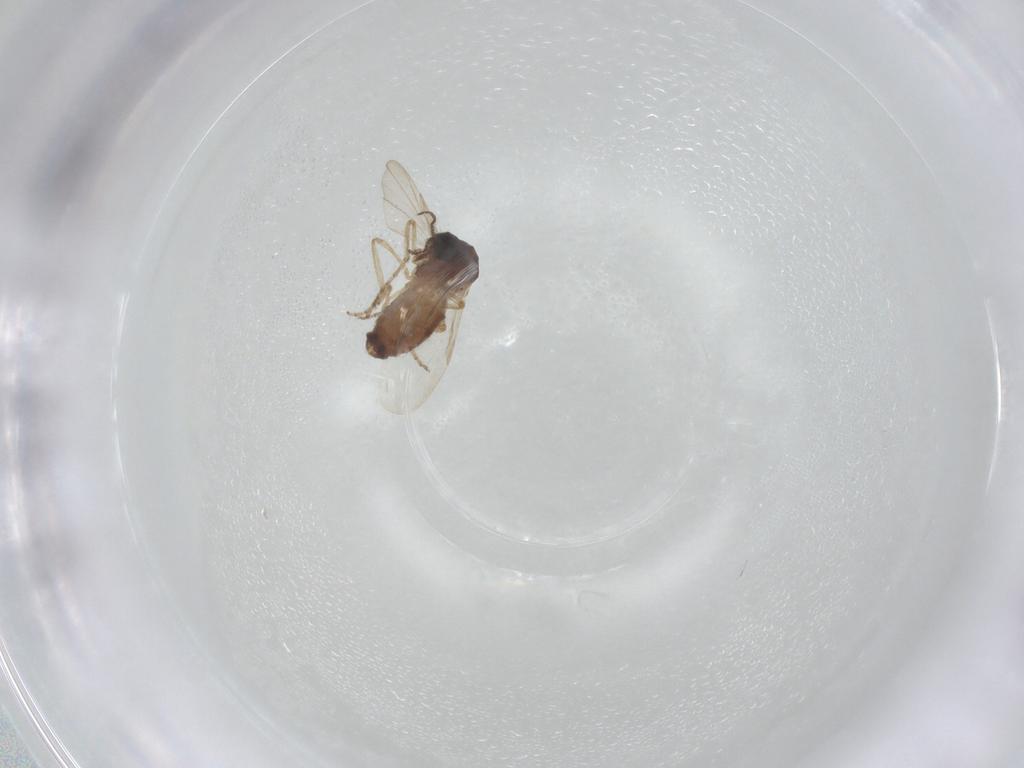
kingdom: Animalia
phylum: Arthropoda
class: Insecta
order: Diptera
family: Ceratopogonidae
